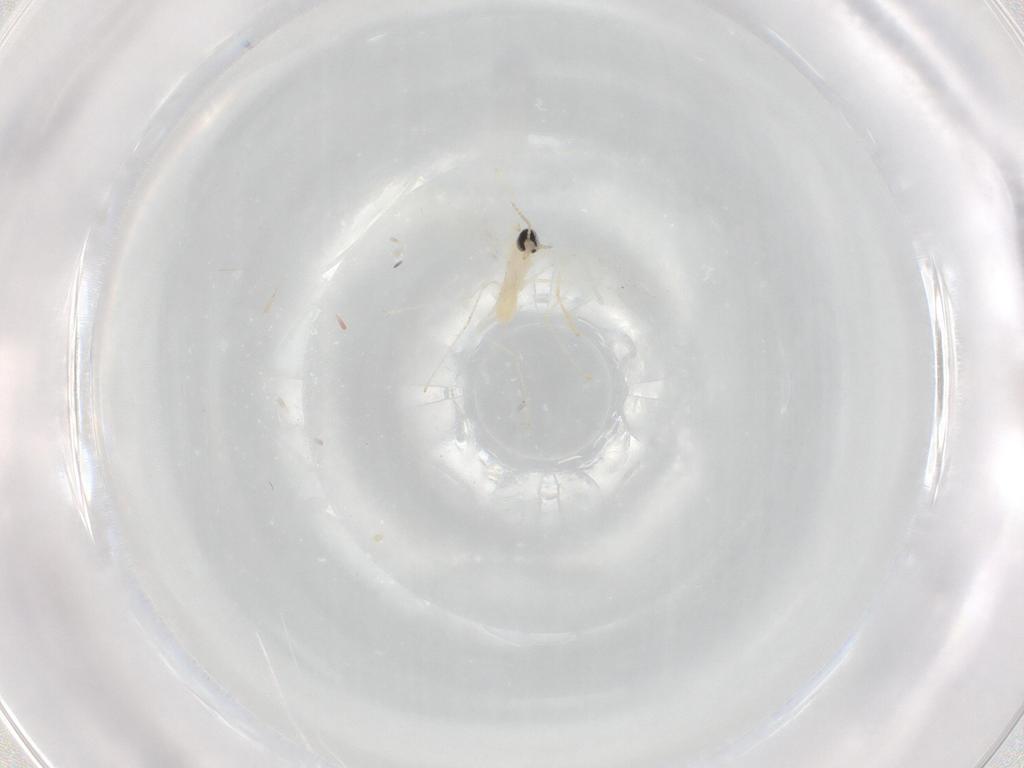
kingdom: Animalia
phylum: Arthropoda
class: Insecta
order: Diptera
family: Cecidomyiidae
